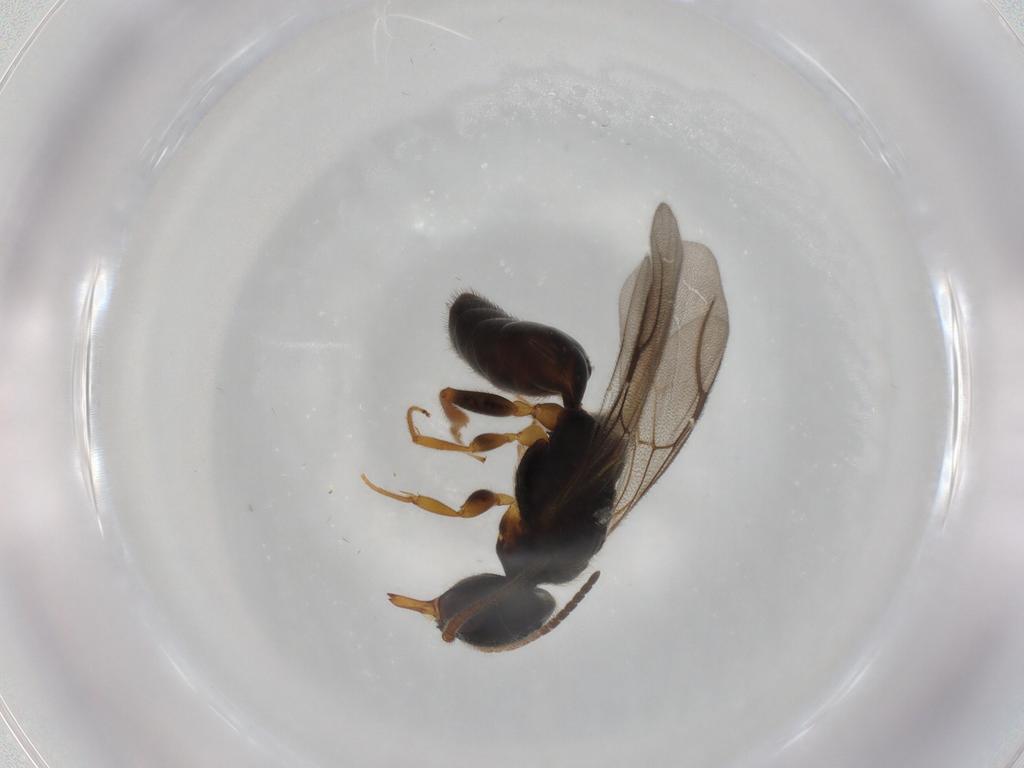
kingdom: Animalia
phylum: Arthropoda
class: Insecta
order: Hymenoptera
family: Bethylidae
